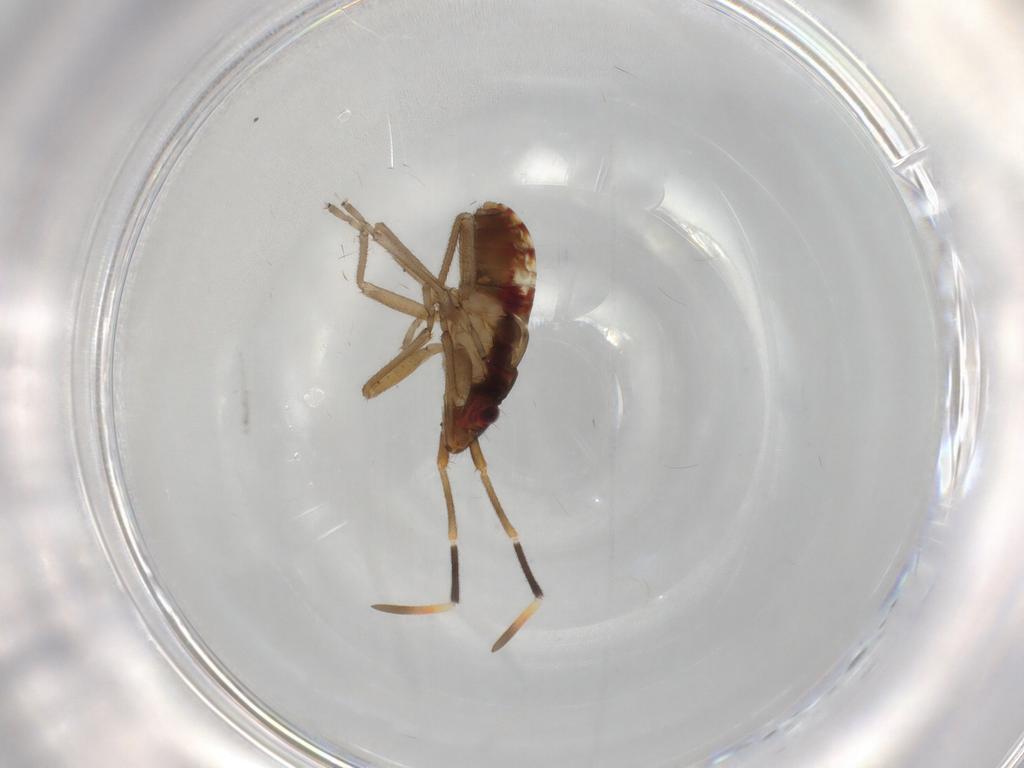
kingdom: Animalia
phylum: Arthropoda
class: Insecta
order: Hemiptera
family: Rhyparochromidae
